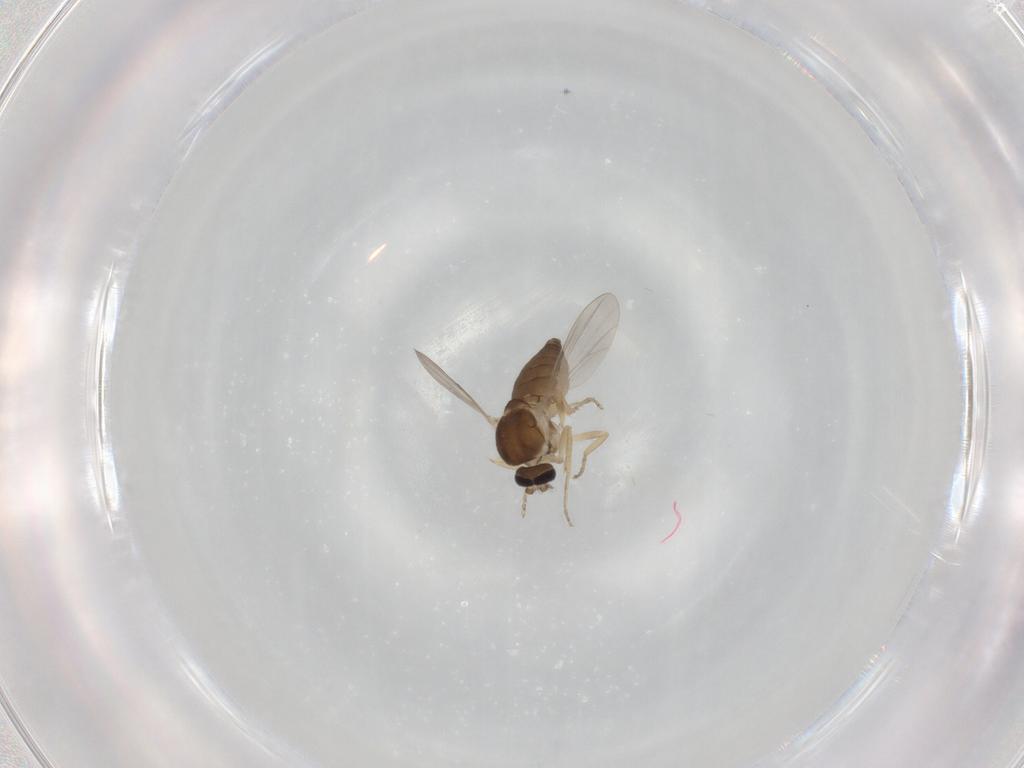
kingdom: Animalia
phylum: Arthropoda
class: Insecta
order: Diptera
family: Ceratopogonidae
